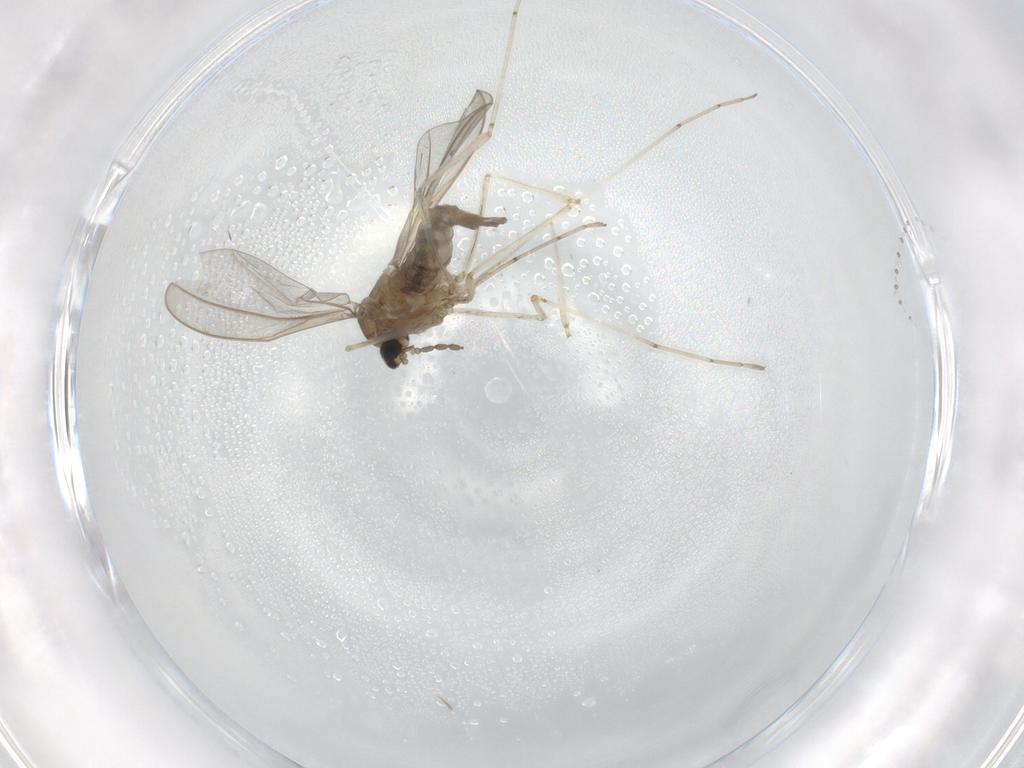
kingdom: Animalia
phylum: Arthropoda
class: Insecta
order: Diptera
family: Cecidomyiidae
